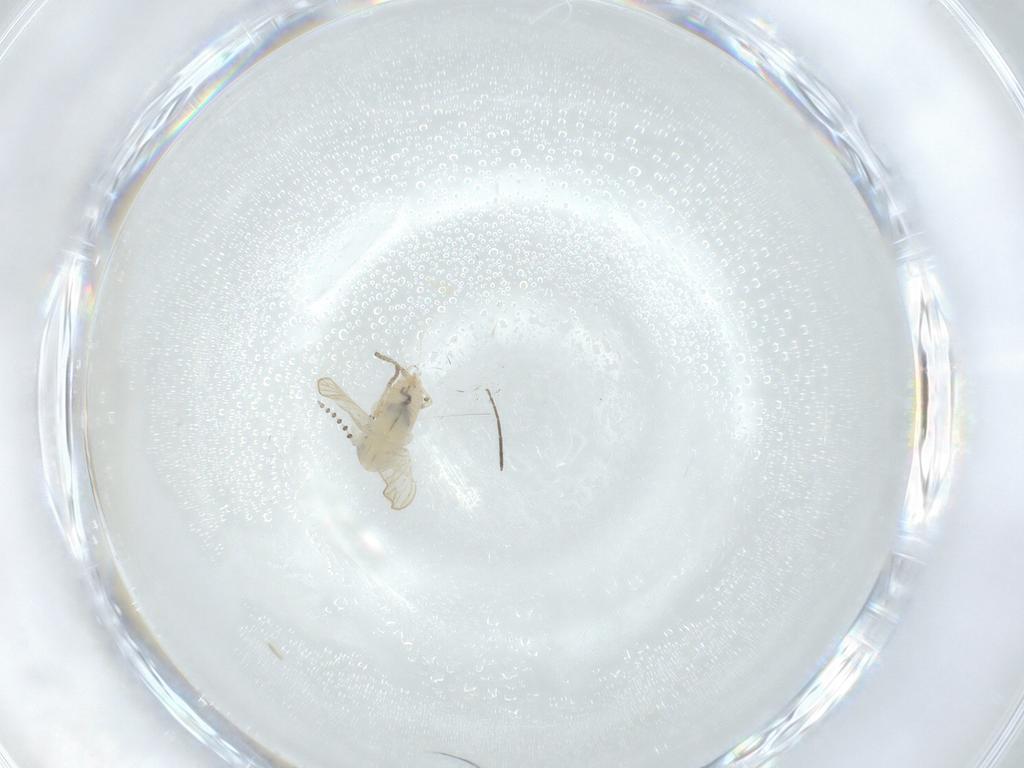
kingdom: Animalia
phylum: Arthropoda
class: Insecta
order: Diptera
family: Psychodidae
